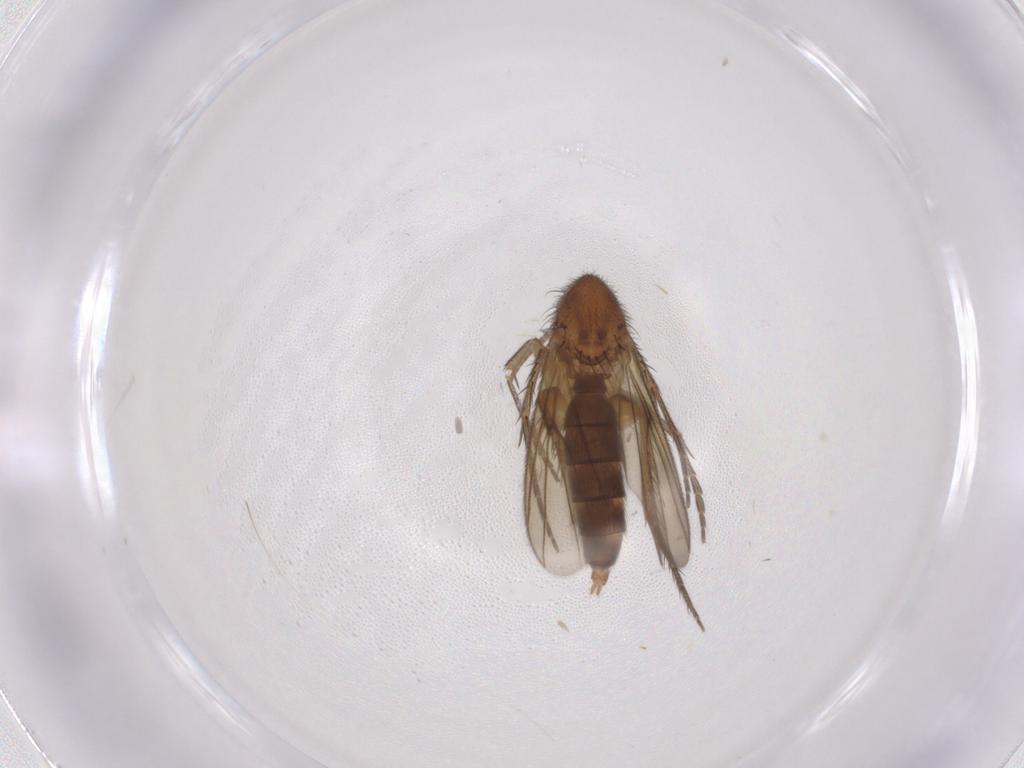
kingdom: Animalia
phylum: Arthropoda
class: Insecta
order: Diptera
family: Mycetophilidae
